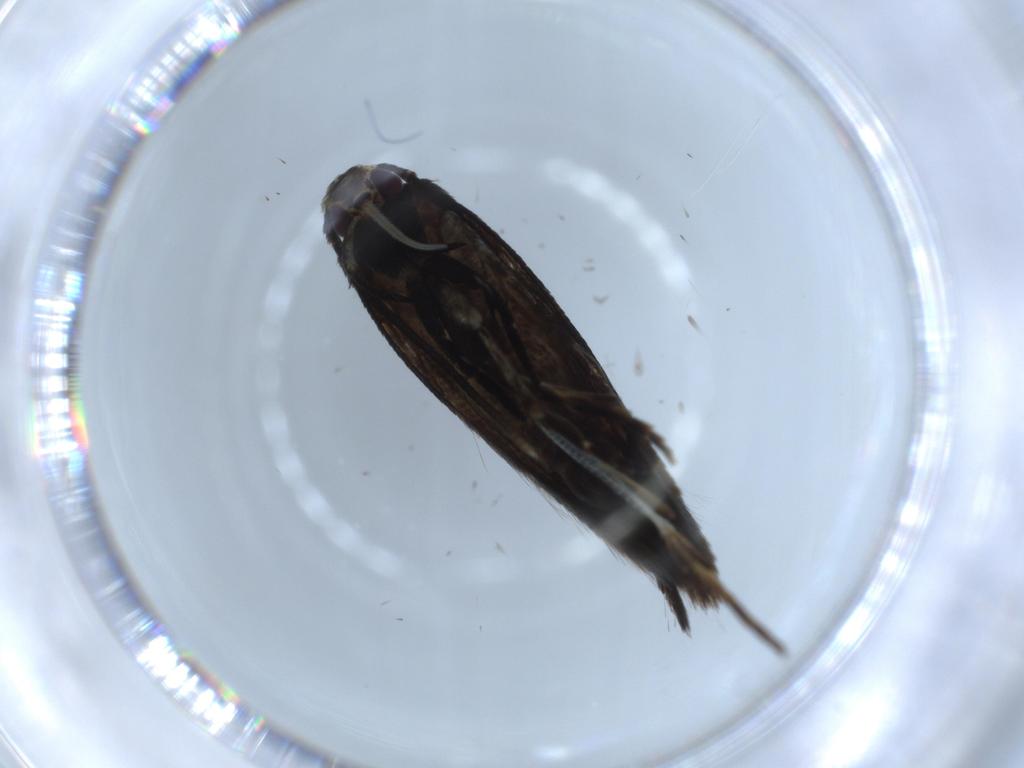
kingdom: Animalia
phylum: Arthropoda
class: Insecta
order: Lepidoptera
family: Cosmopterigidae
